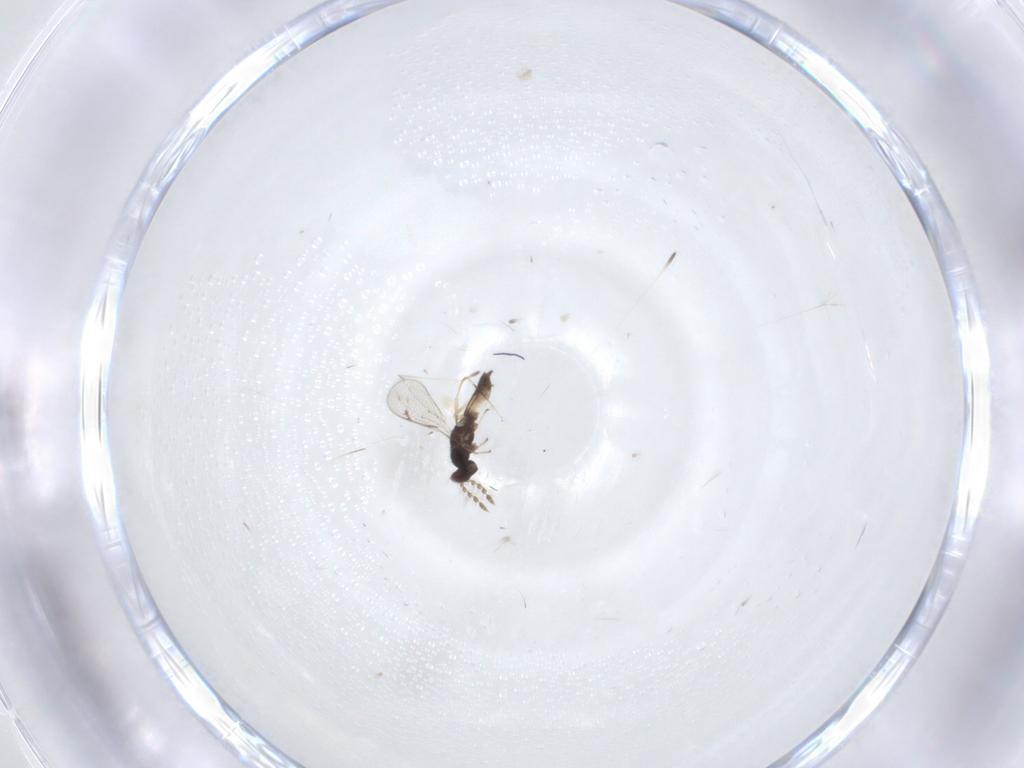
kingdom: Animalia
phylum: Arthropoda
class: Insecta
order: Hymenoptera
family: Eulophidae
